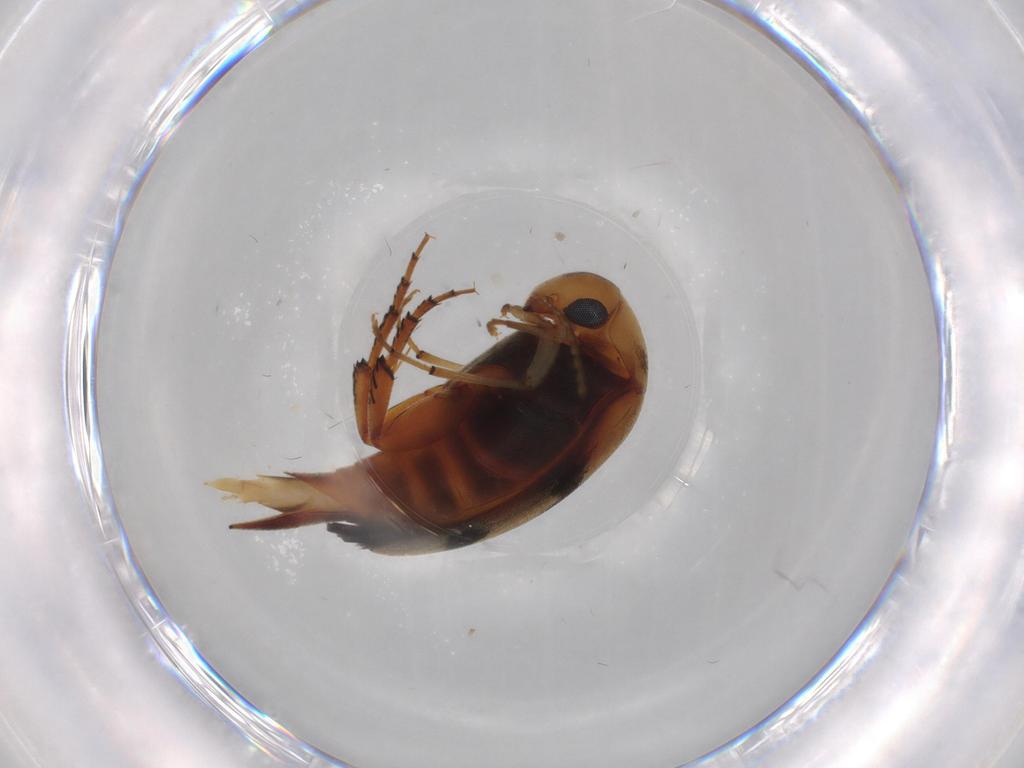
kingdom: Animalia
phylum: Arthropoda
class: Insecta
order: Coleoptera
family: Mordellidae
